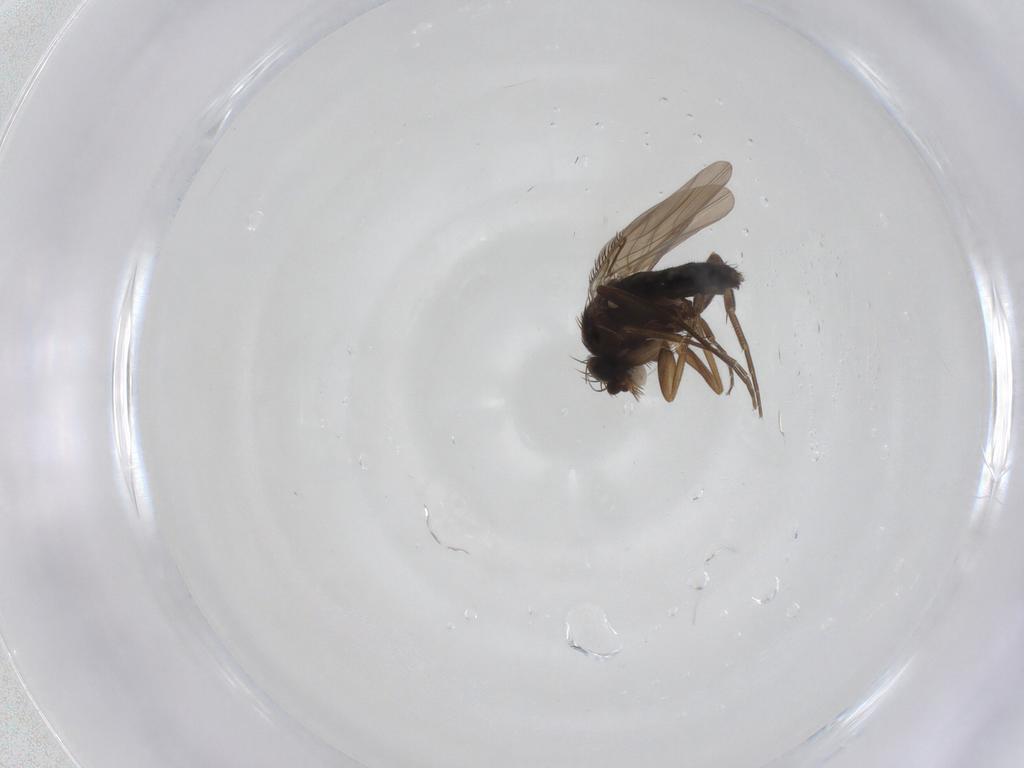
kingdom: Animalia
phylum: Arthropoda
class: Insecta
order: Diptera
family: Phoridae
